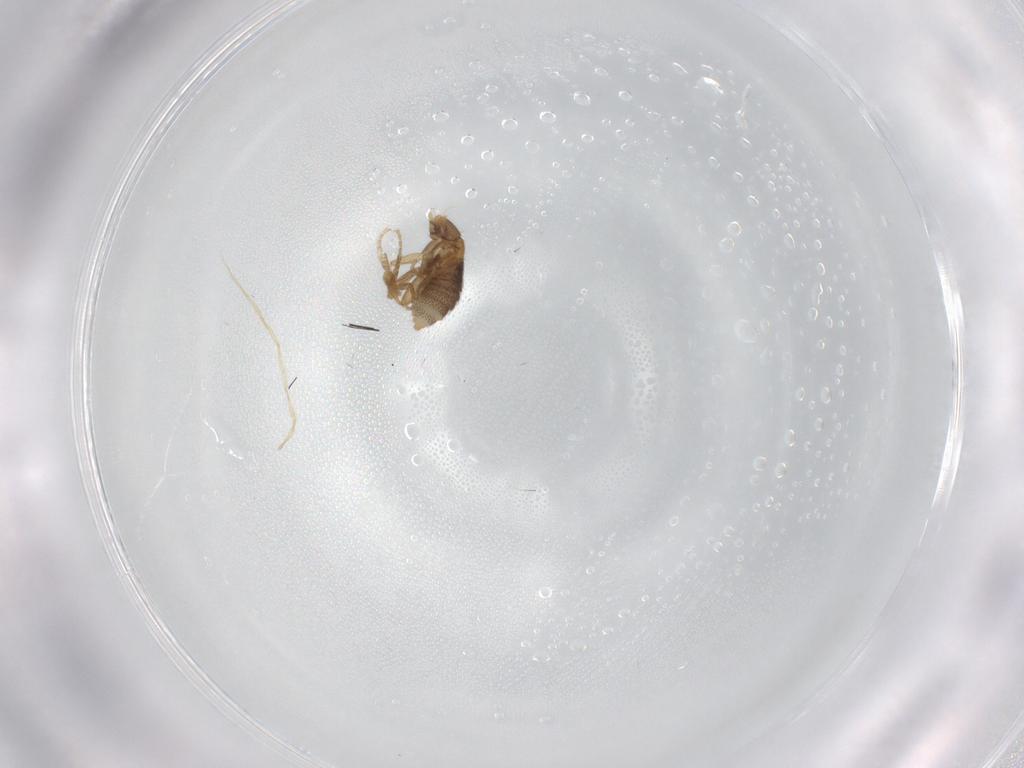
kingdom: Animalia
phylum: Arthropoda
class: Insecta
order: Diptera
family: Phoridae
